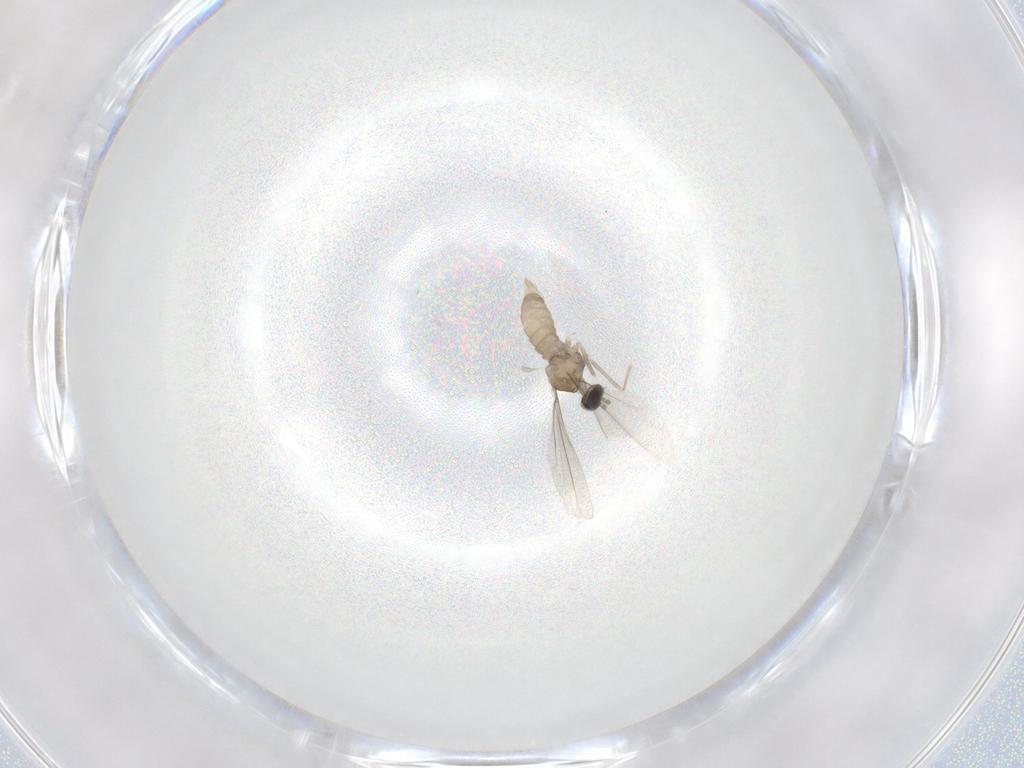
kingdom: Animalia
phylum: Arthropoda
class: Insecta
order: Diptera
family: Cecidomyiidae
